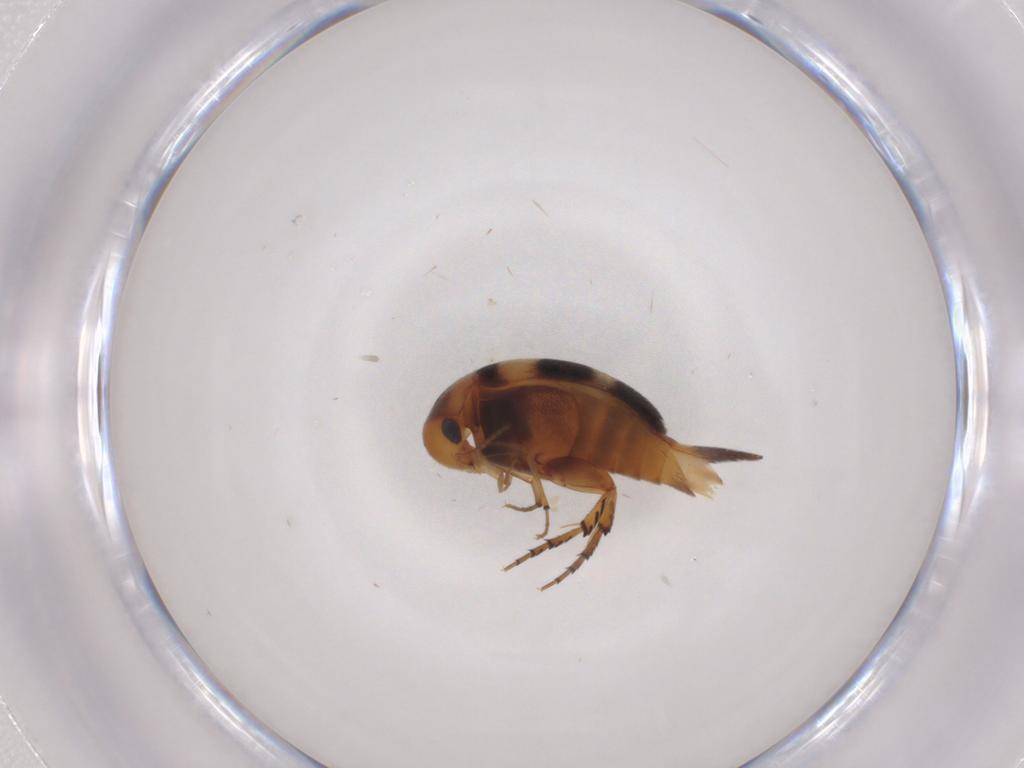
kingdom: Animalia
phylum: Arthropoda
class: Insecta
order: Coleoptera
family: Mordellidae
